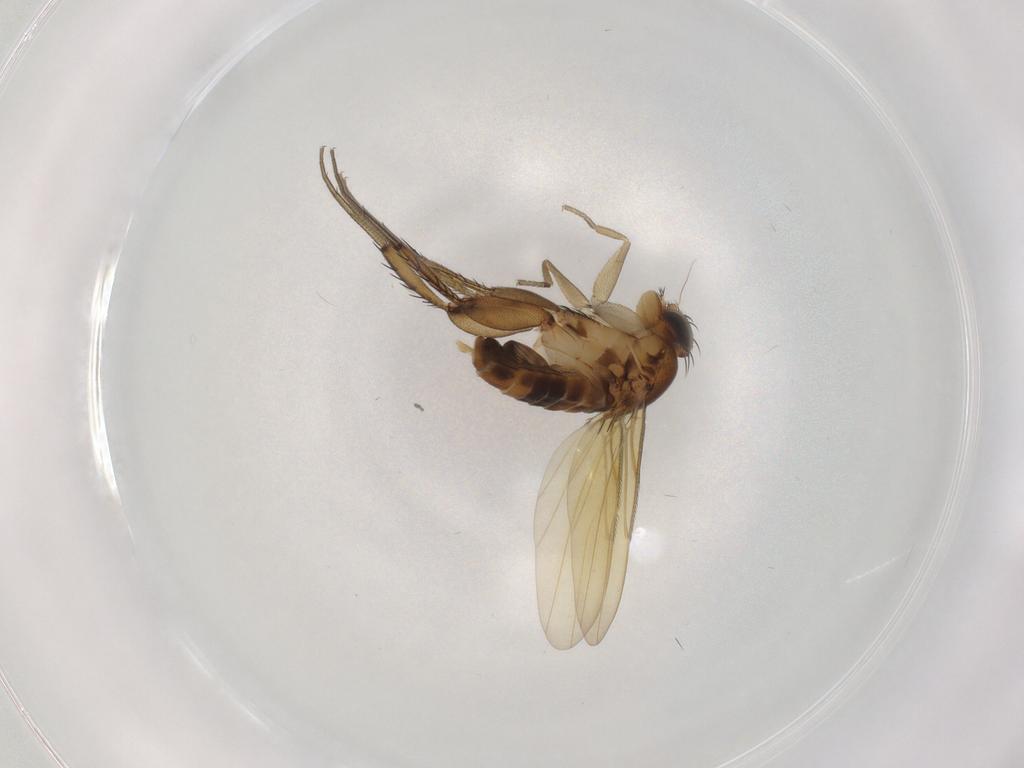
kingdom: Animalia
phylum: Arthropoda
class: Insecta
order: Diptera
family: Phoridae
